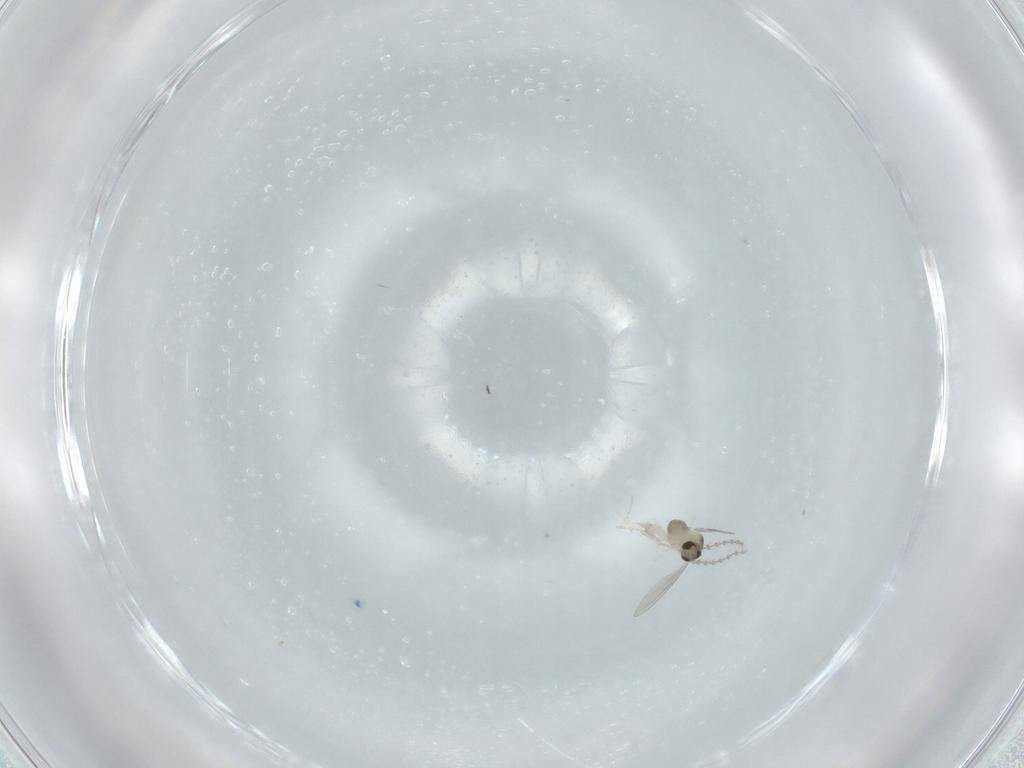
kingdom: Animalia
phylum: Arthropoda
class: Insecta
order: Diptera
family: Cecidomyiidae
